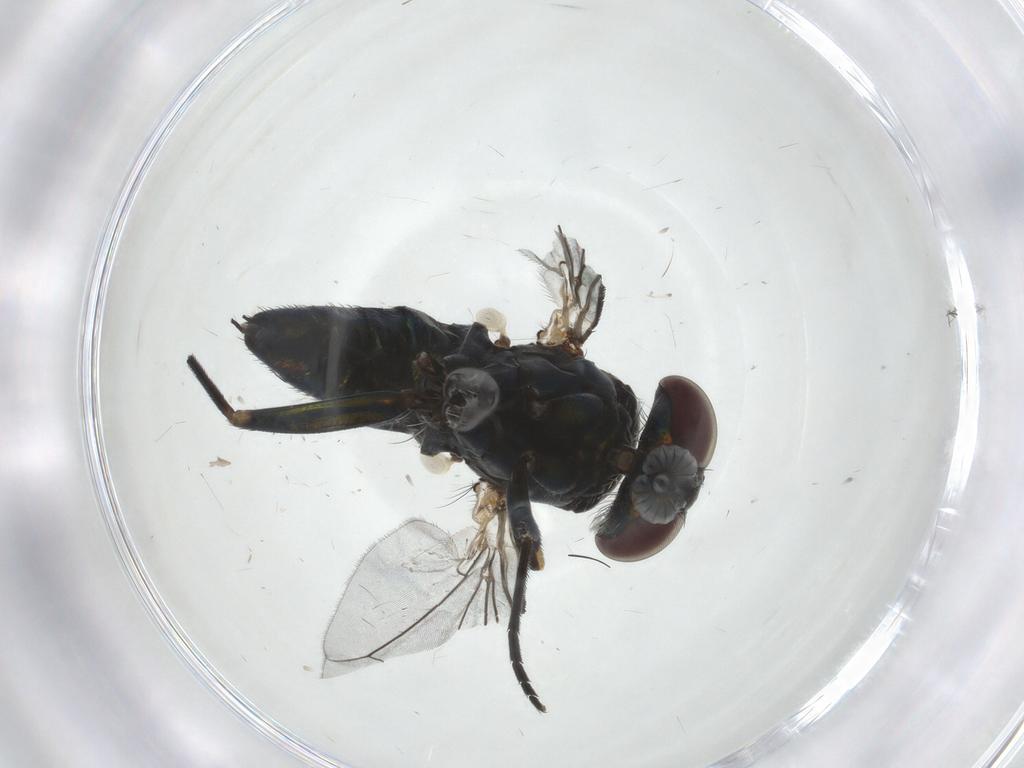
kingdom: Animalia
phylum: Arthropoda
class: Insecta
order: Diptera
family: Dolichopodidae
